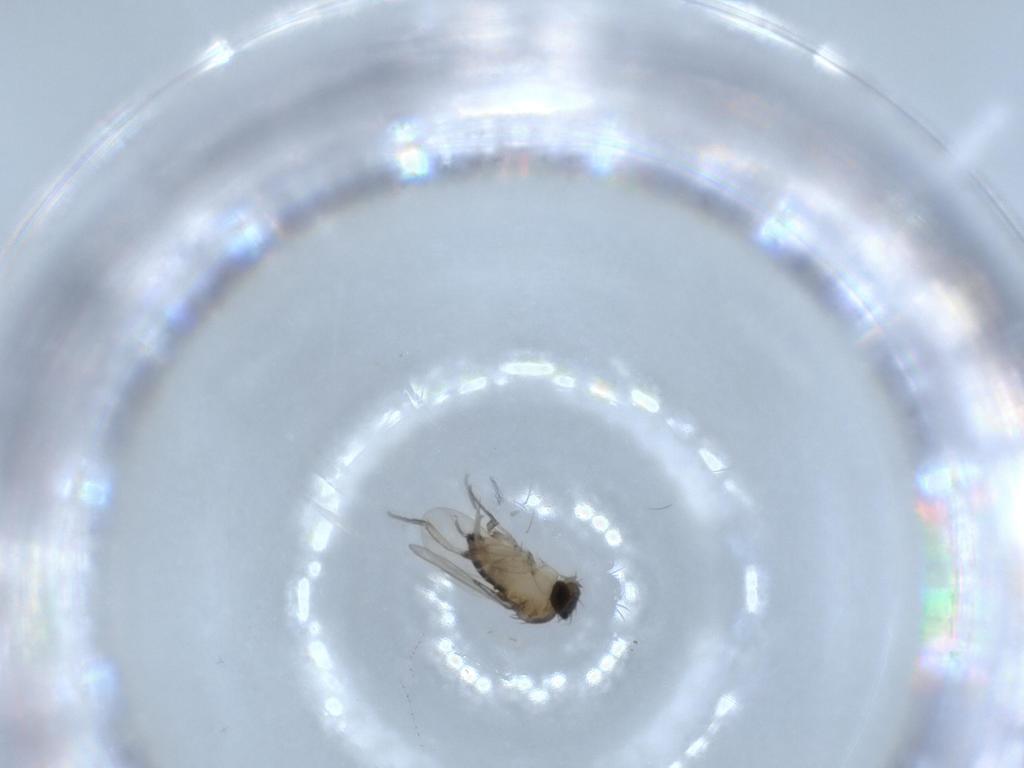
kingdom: Animalia
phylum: Arthropoda
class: Insecta
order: Diptera
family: Phoridae
